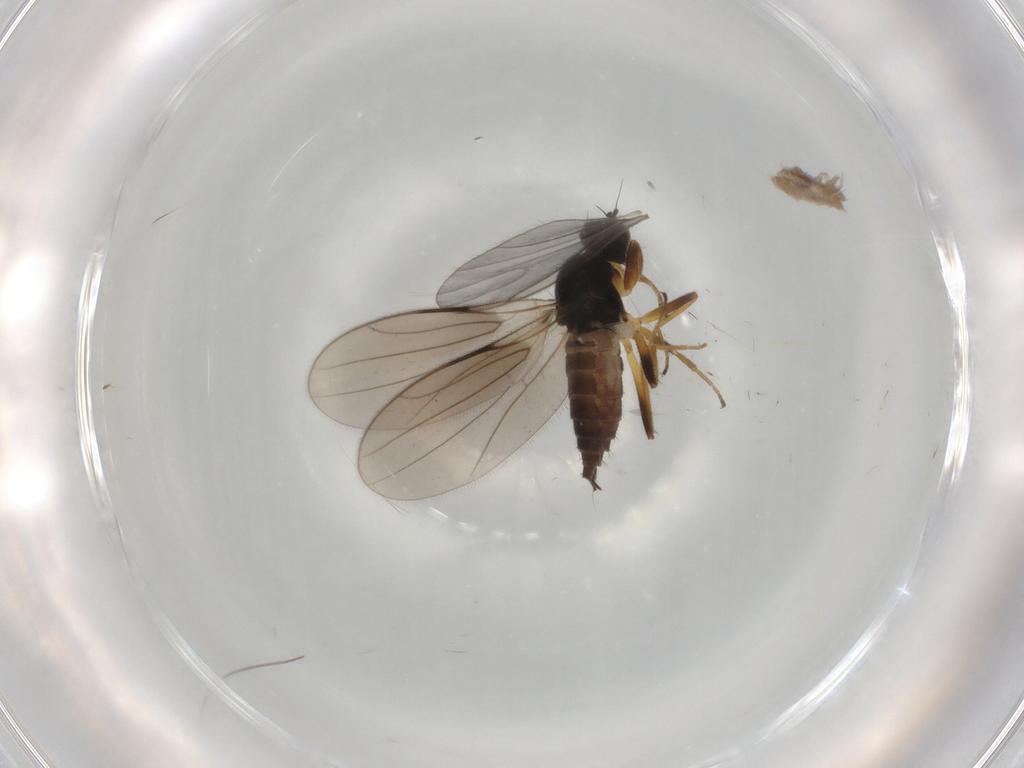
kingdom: Animalia
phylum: Arthropoda
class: Insecta
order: Diptera
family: Hybotidae
